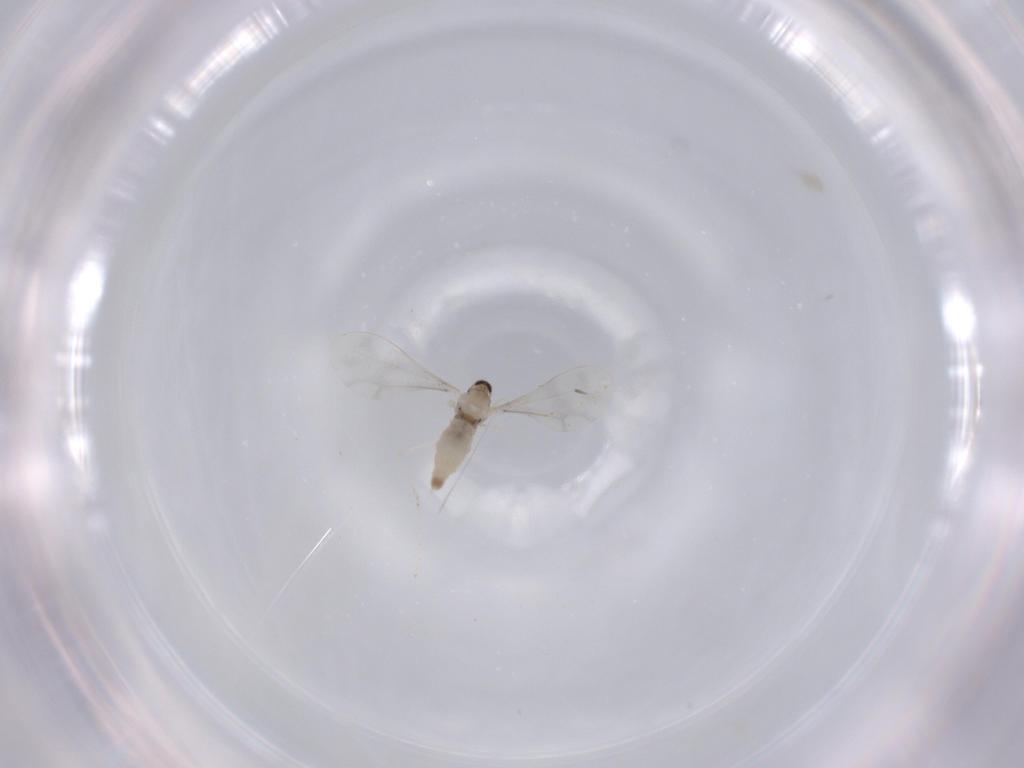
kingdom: Animalia
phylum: Arthropoda
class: Insecta
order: Diptera
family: Cecidomyiidae
